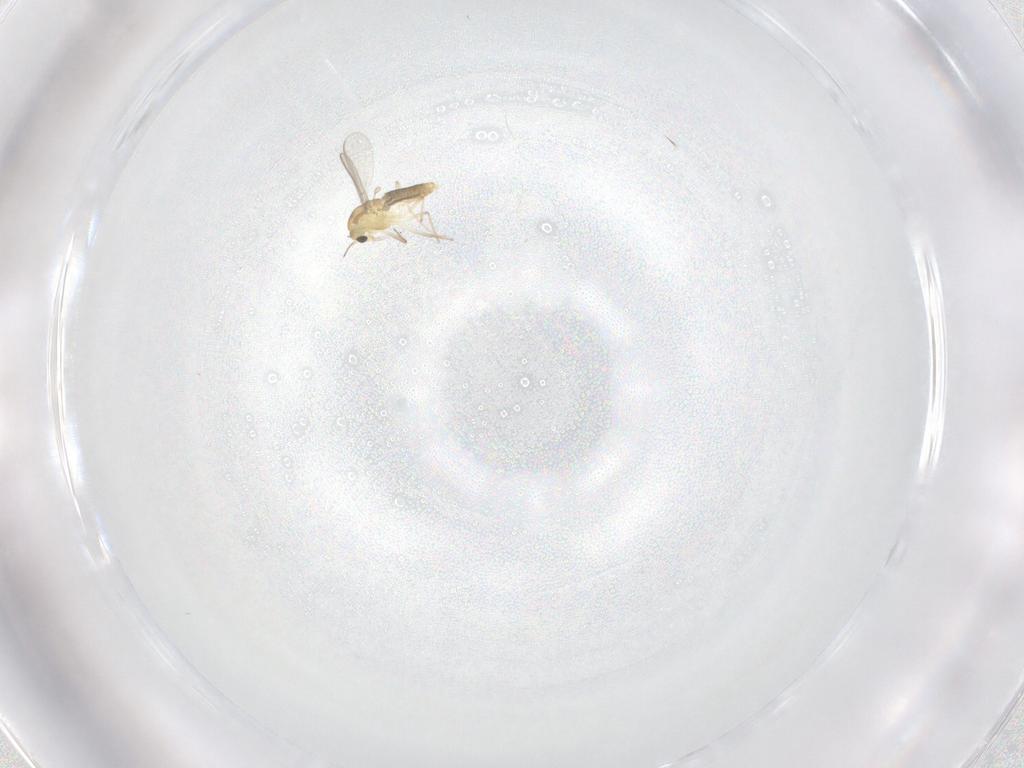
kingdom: Animalia
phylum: Arthropoda
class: Insecta
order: Diptera
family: Chironomidae
